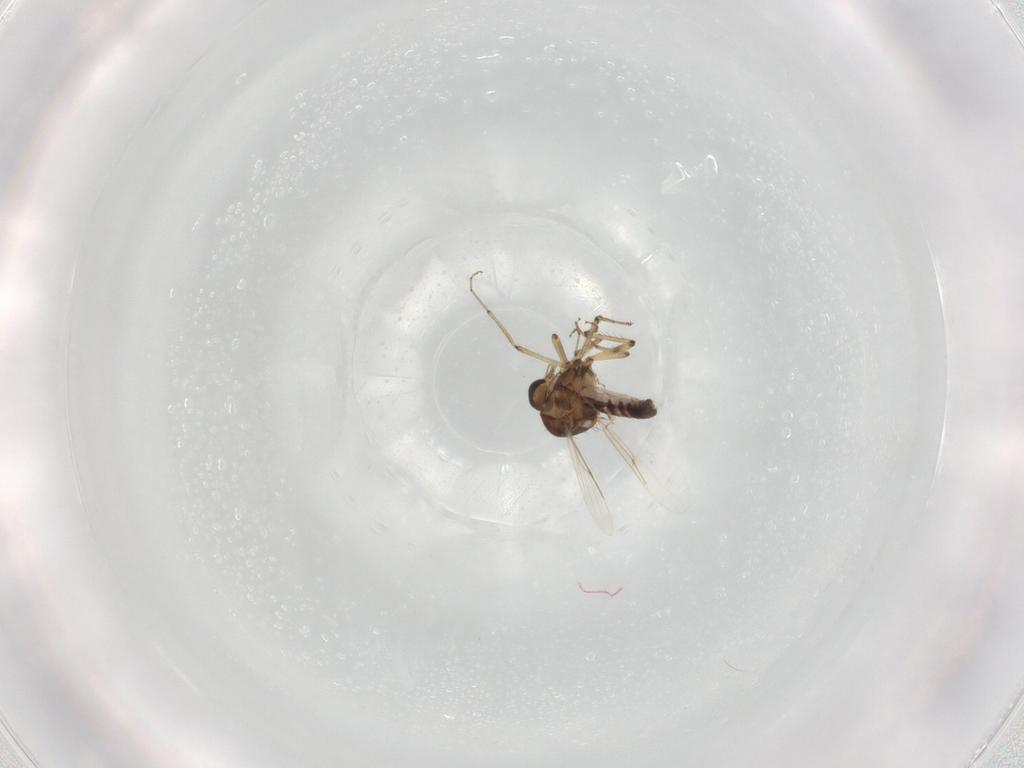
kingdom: Animalia
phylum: Arthropoda
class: Insecta
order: Diptera
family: Ceratopogonidae
